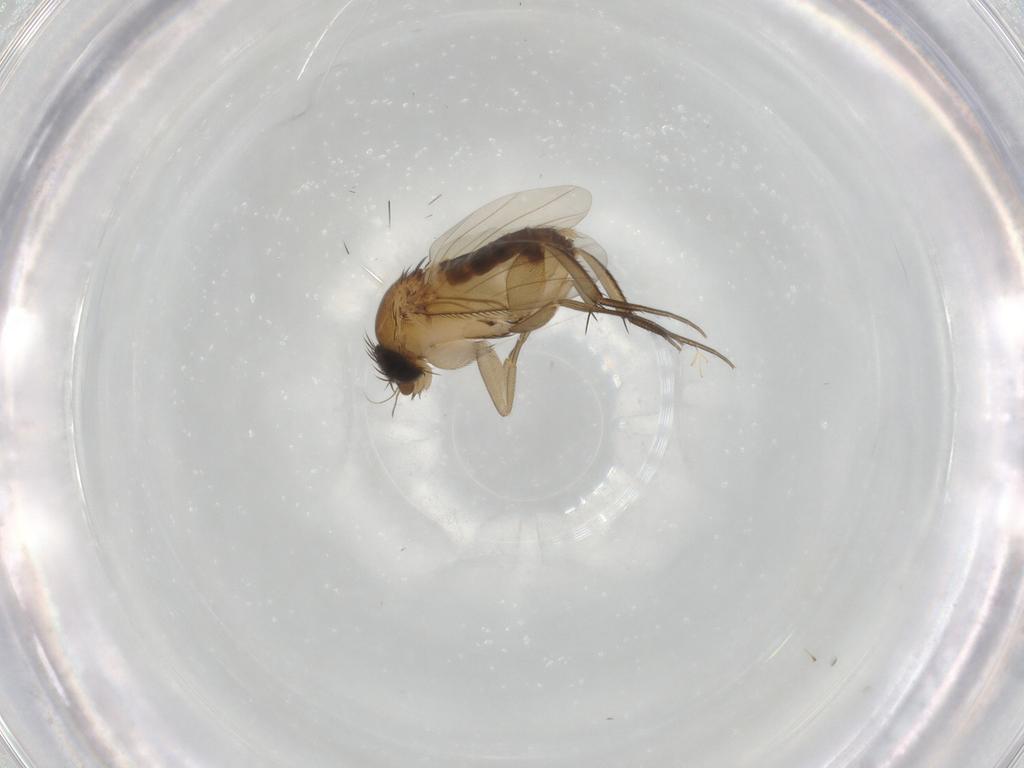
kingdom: Animalia
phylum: Arthropoda
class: Insecta
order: Diptera
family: Phoridae
